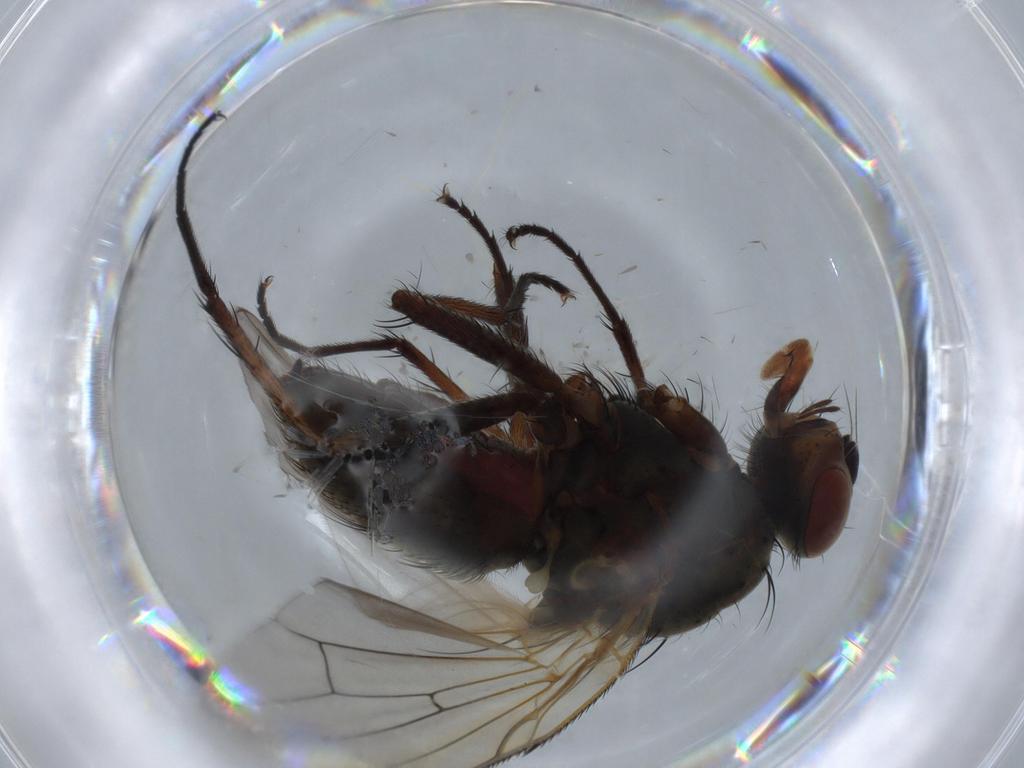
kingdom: Animalia
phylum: Arthropoda
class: Insecta
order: Diptera
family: Anthomyiidae
